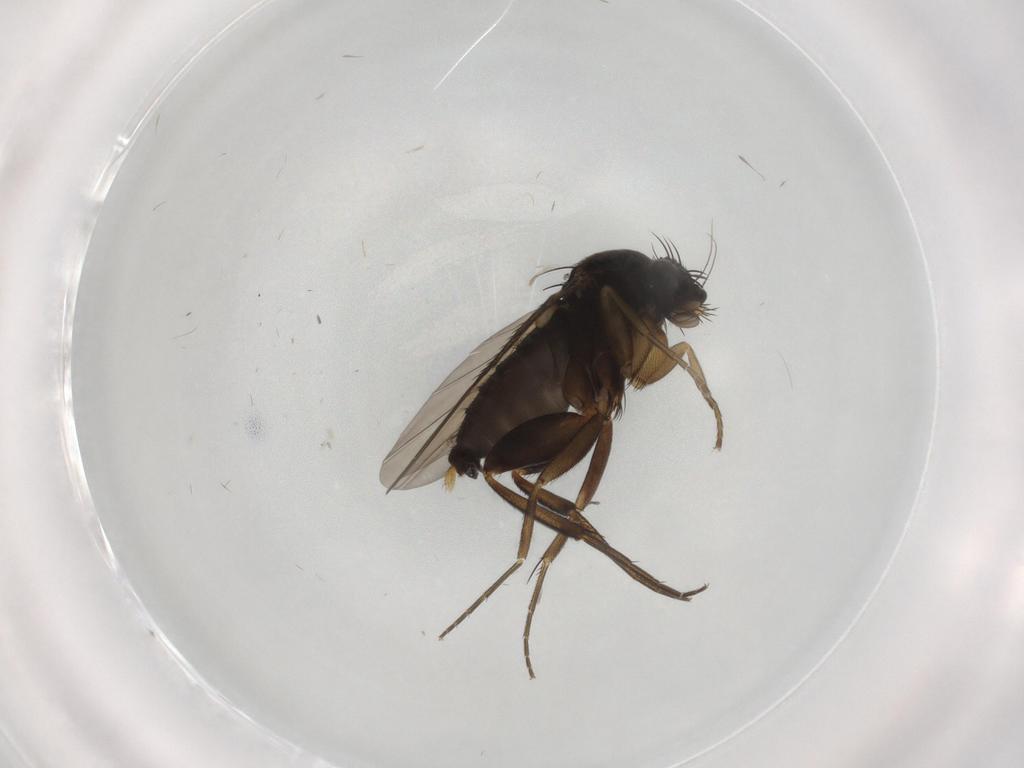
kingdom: Animalia
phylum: Arthropoda
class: Insecta
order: Diptera
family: Phoridae
